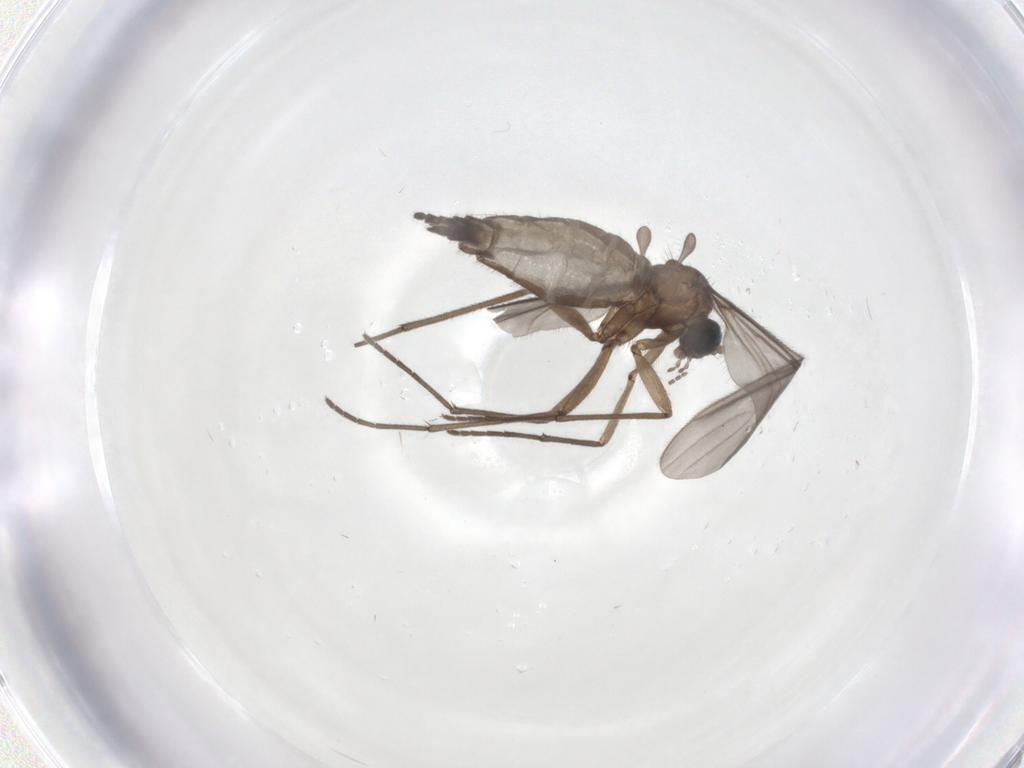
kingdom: Animalia
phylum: Arthropoda
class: Insecta
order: Diptera
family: Sciaridae
